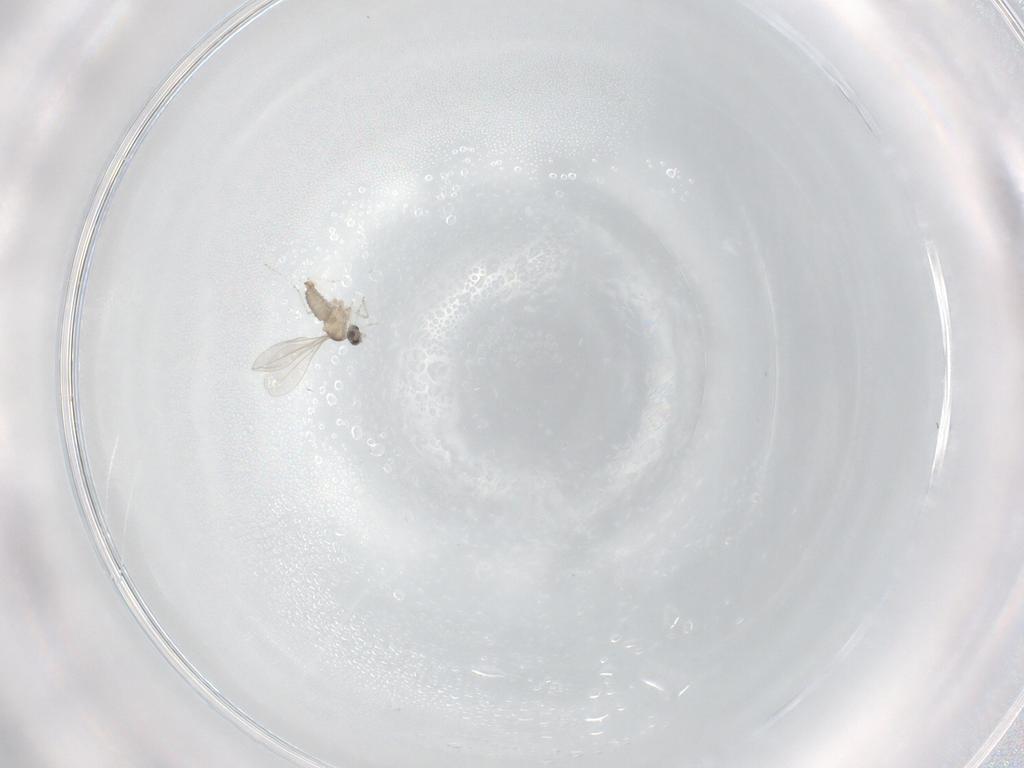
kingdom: Animalia
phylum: Arthropoda
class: Insecta
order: Diptera
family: Cecidomyiidae
